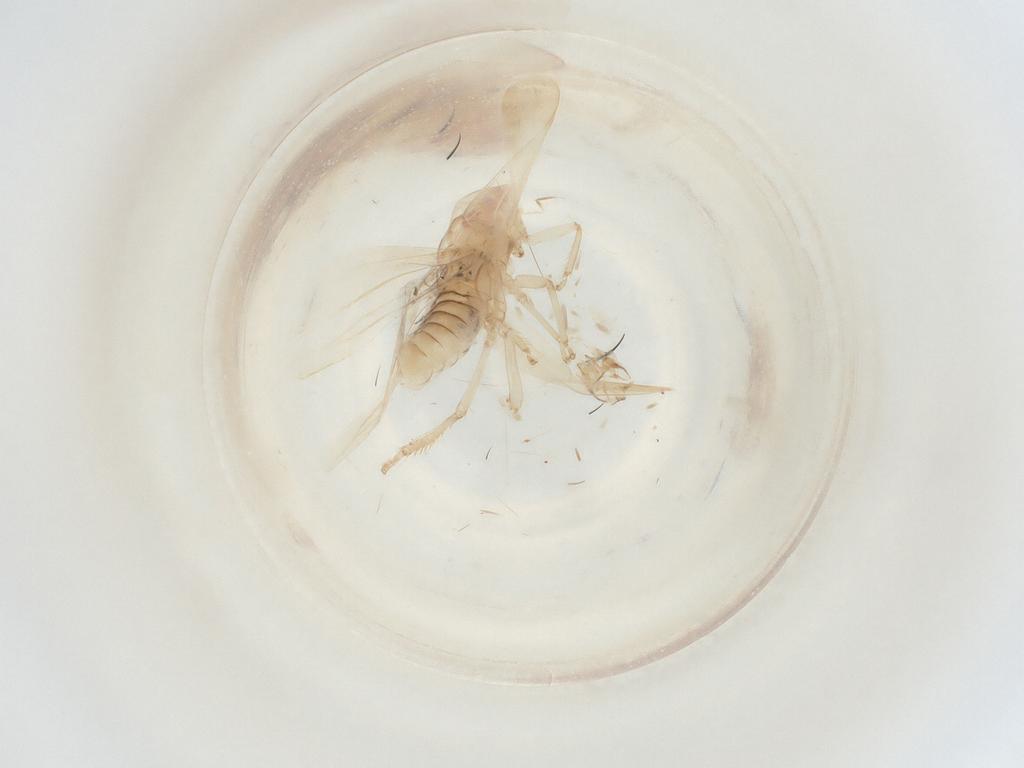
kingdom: Animalia
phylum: Arthropoda
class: Insecta
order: Hemiptera
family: Cicadellidae
